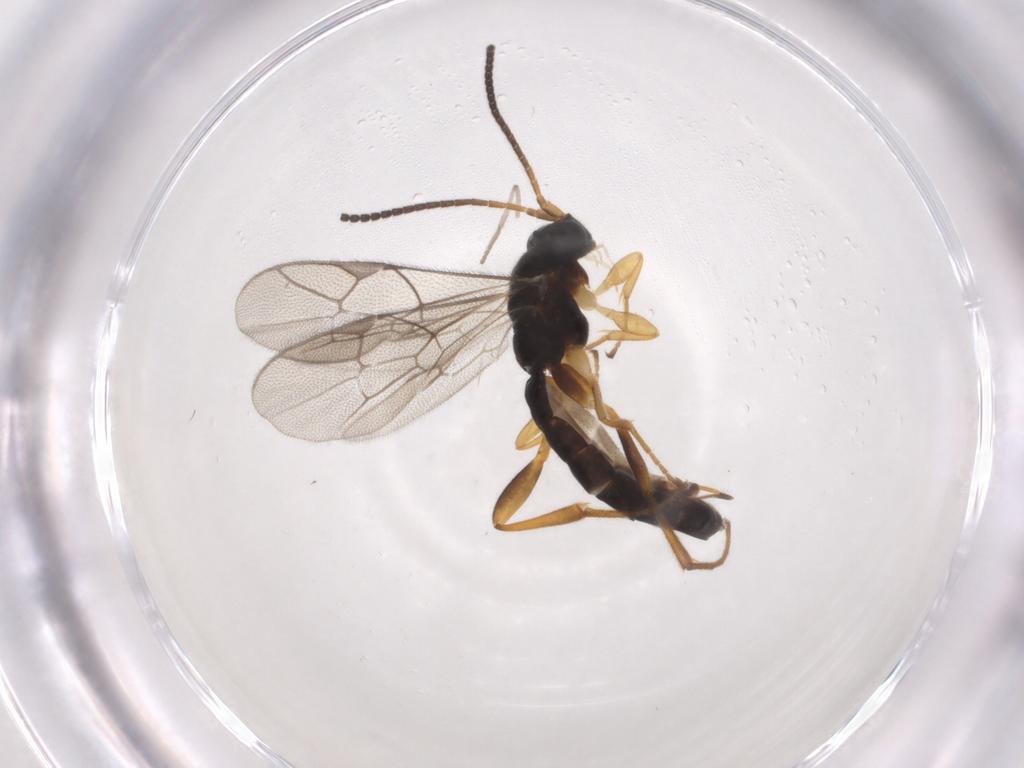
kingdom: Animalia
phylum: Arthropoda
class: Insecta
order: Hymenoptera
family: Ichneumonidae
